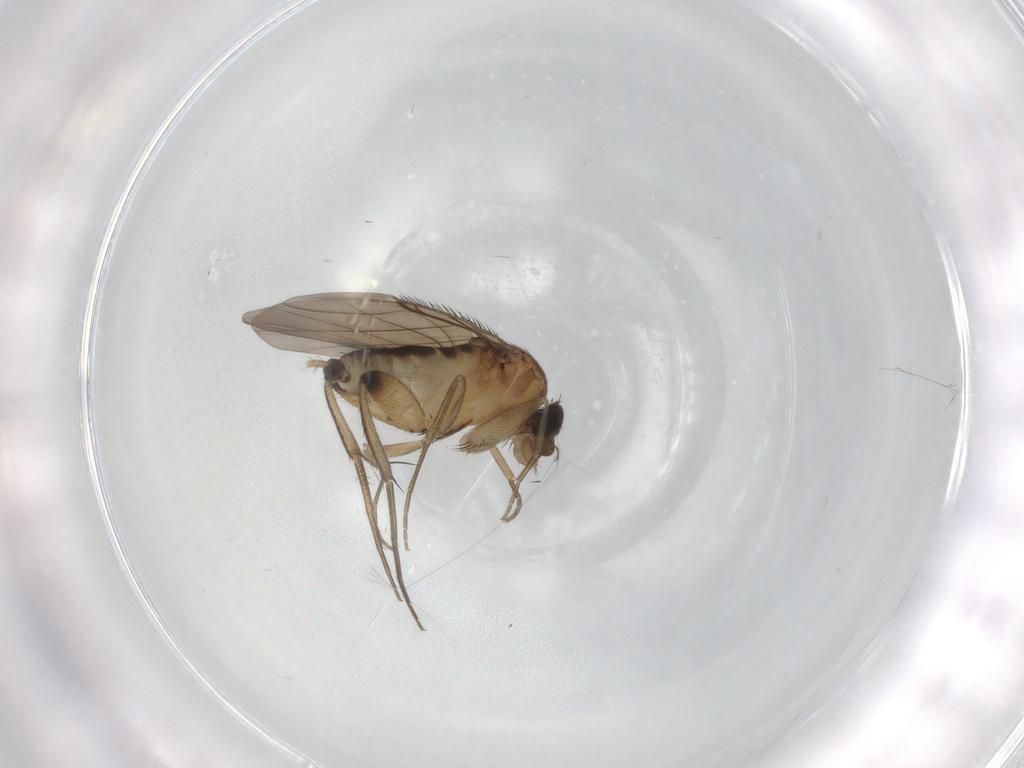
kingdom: Animalia
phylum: Arthropoda
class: Insecta
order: Diptera
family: Phoridae
